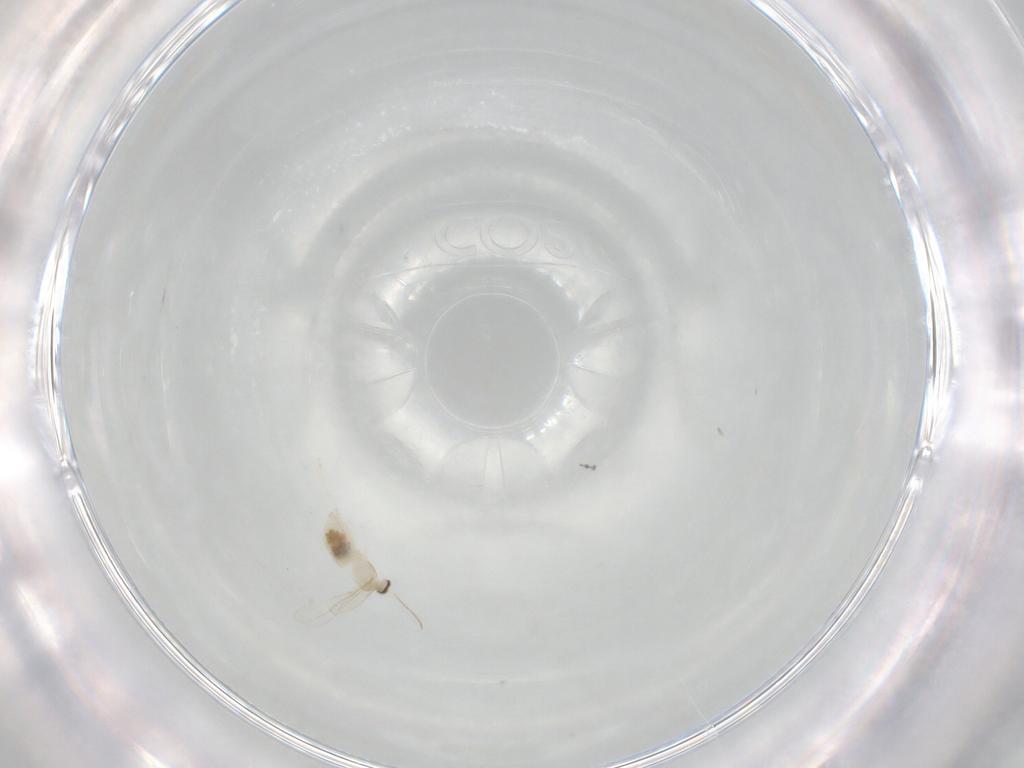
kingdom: Animalia
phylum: Arthropoda
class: Insecta
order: Diptera
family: Cecidomyiidae
